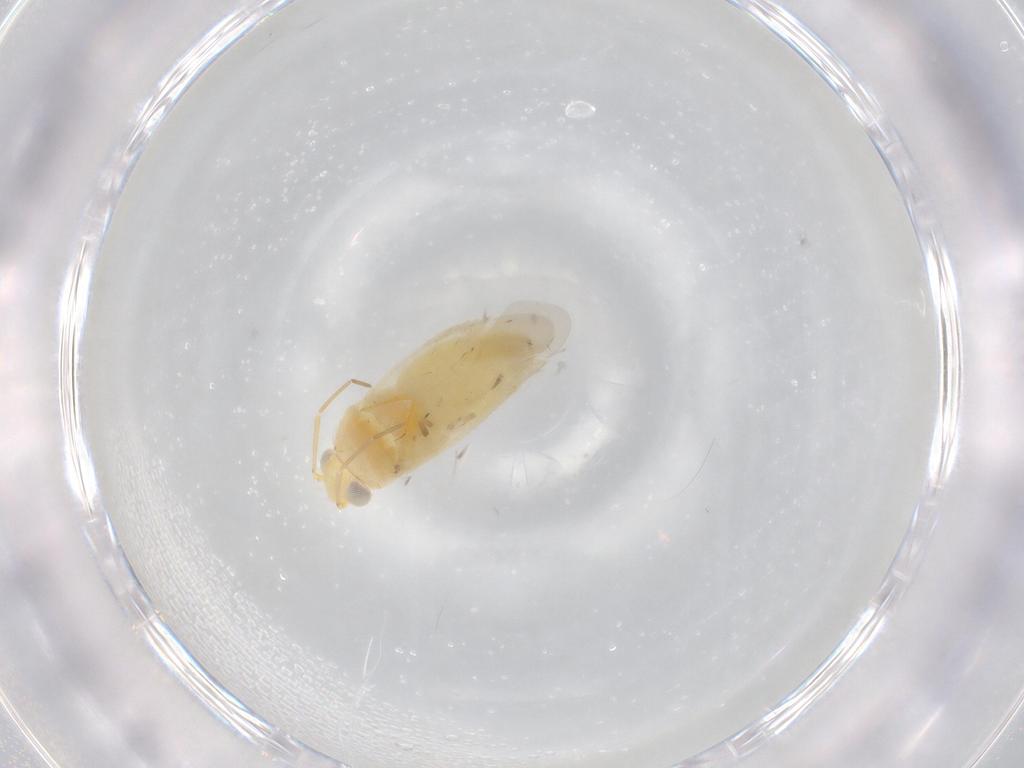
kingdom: Animalia
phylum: Arthropoda
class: Insecta
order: Hemiptera
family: Miridae
